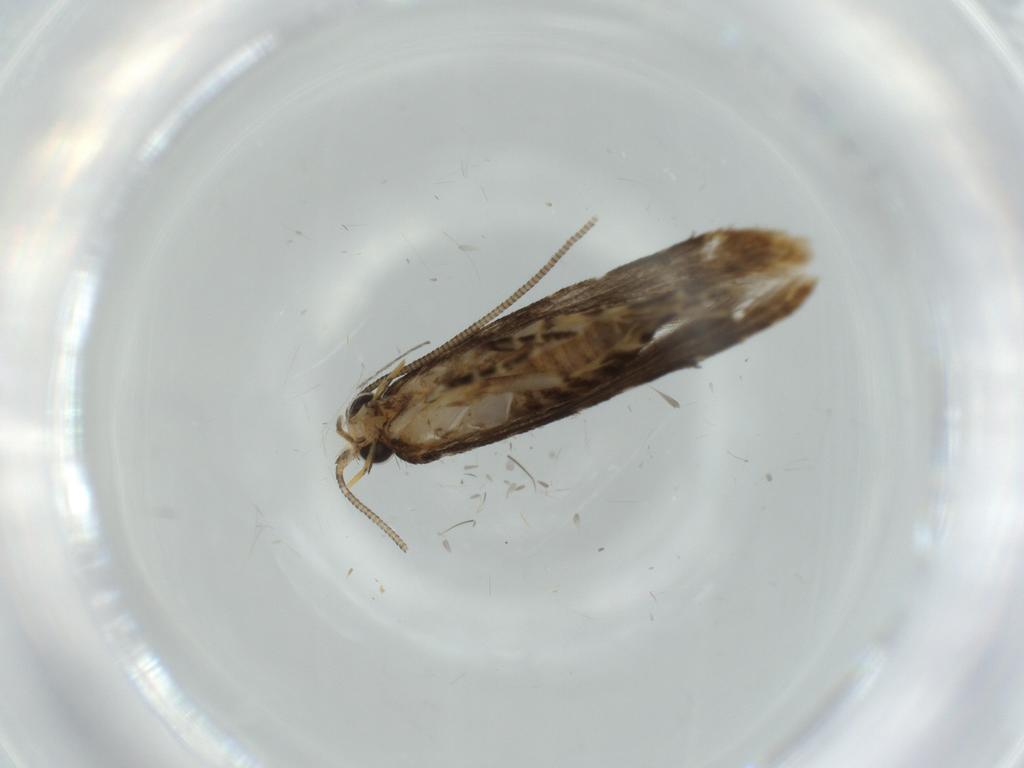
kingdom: Animalia
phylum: Arthropoda
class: Insecta
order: Lepidoptera
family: Tineidae
